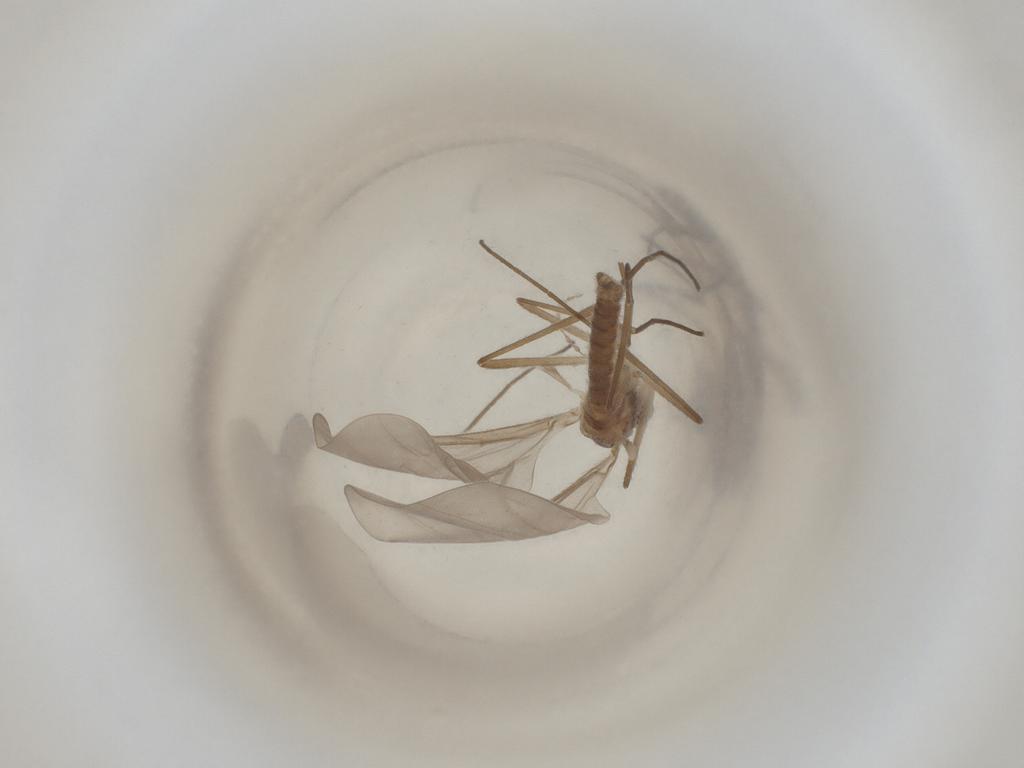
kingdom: Animalia
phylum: Arthropoda
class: Insecta
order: Diptera
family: Cecidomyiidae
